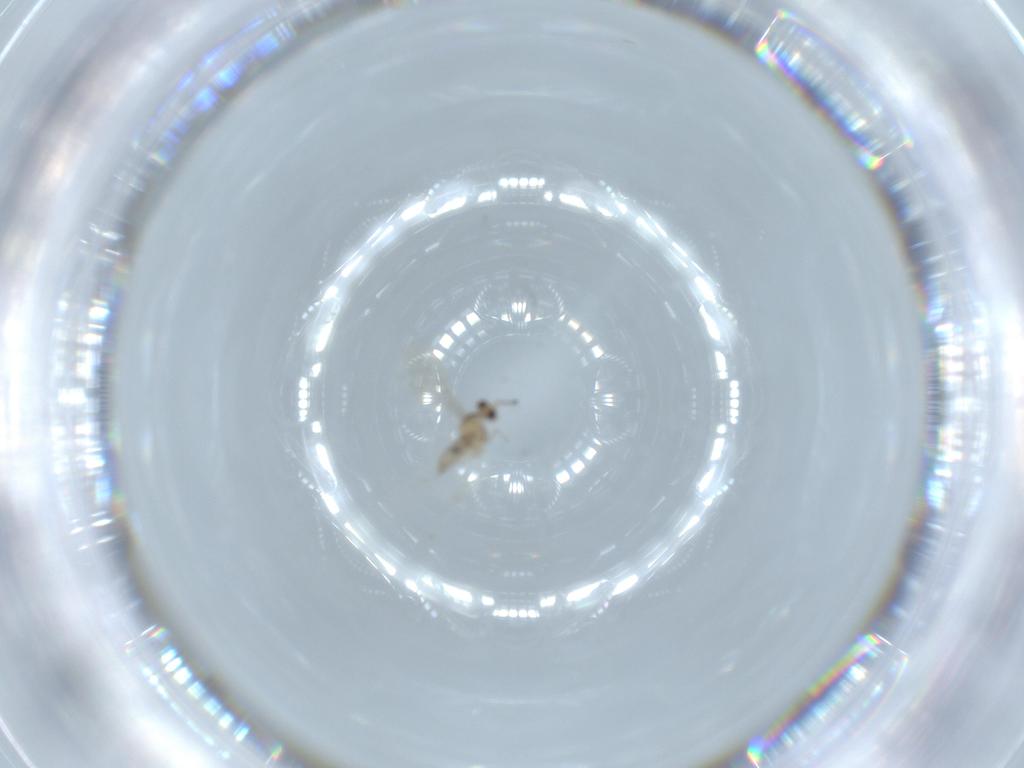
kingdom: Animalia
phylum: Arthropoda
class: Insecta
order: Diptera
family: Cecidomyiidae
